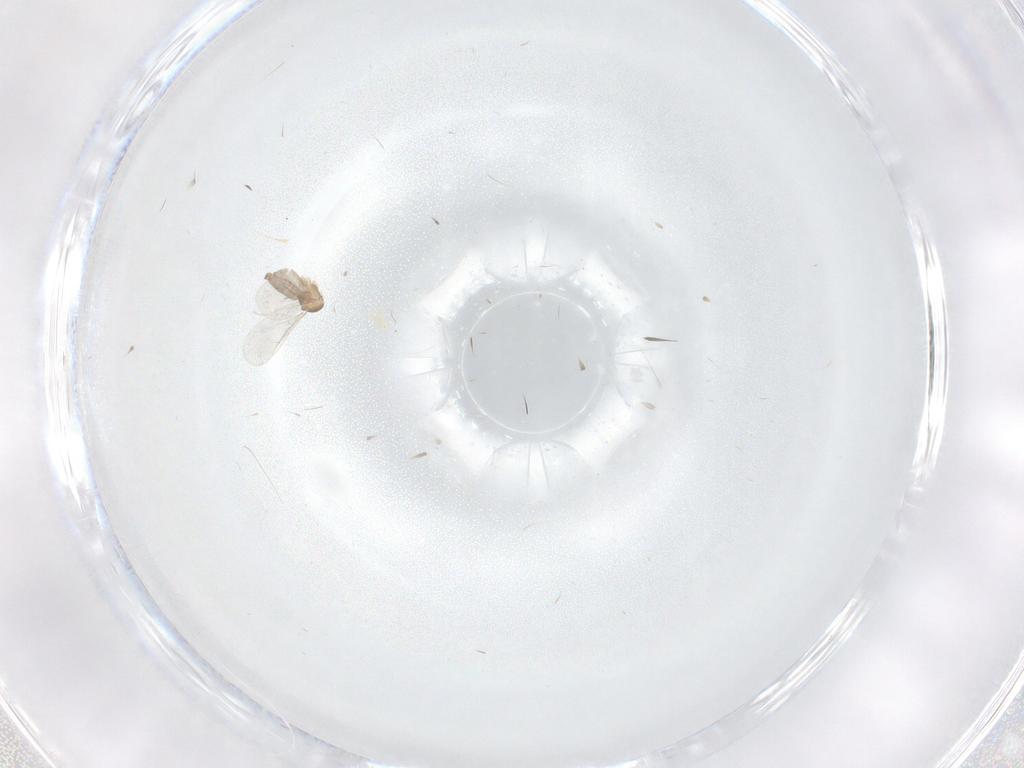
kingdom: Animalia
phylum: Arthropoda
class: Insecta
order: Diptera
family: Cecidomyiidae
